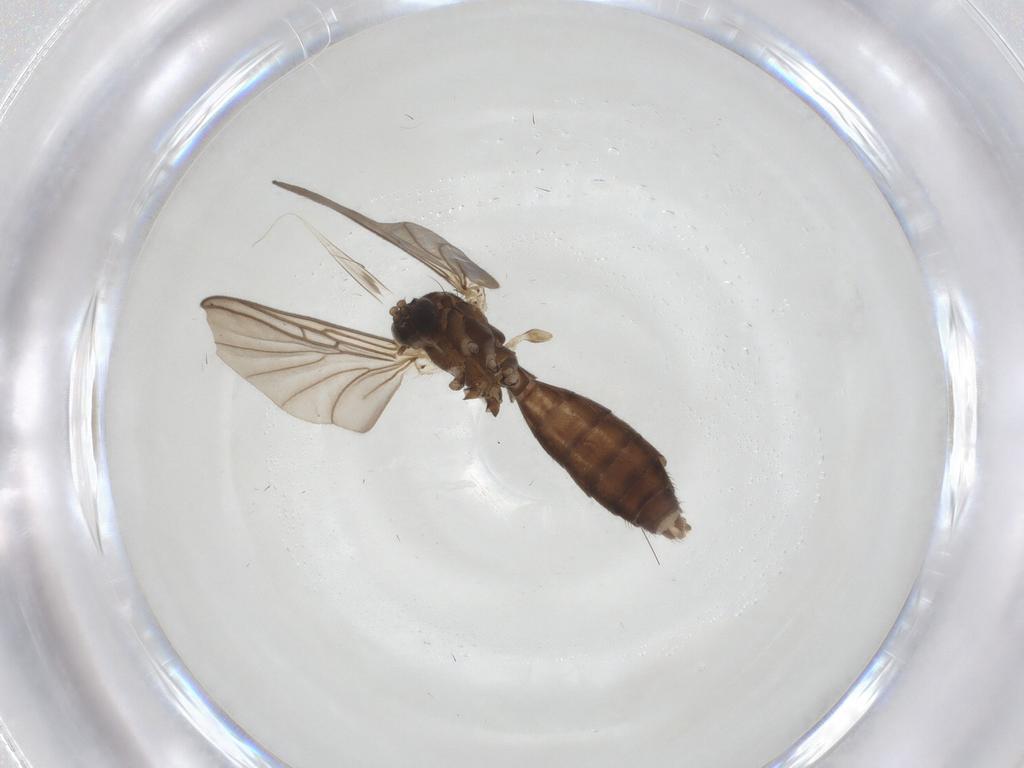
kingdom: Animalia
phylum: Arthropoda
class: Insecta
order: Diptera
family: Mycetophilidae
